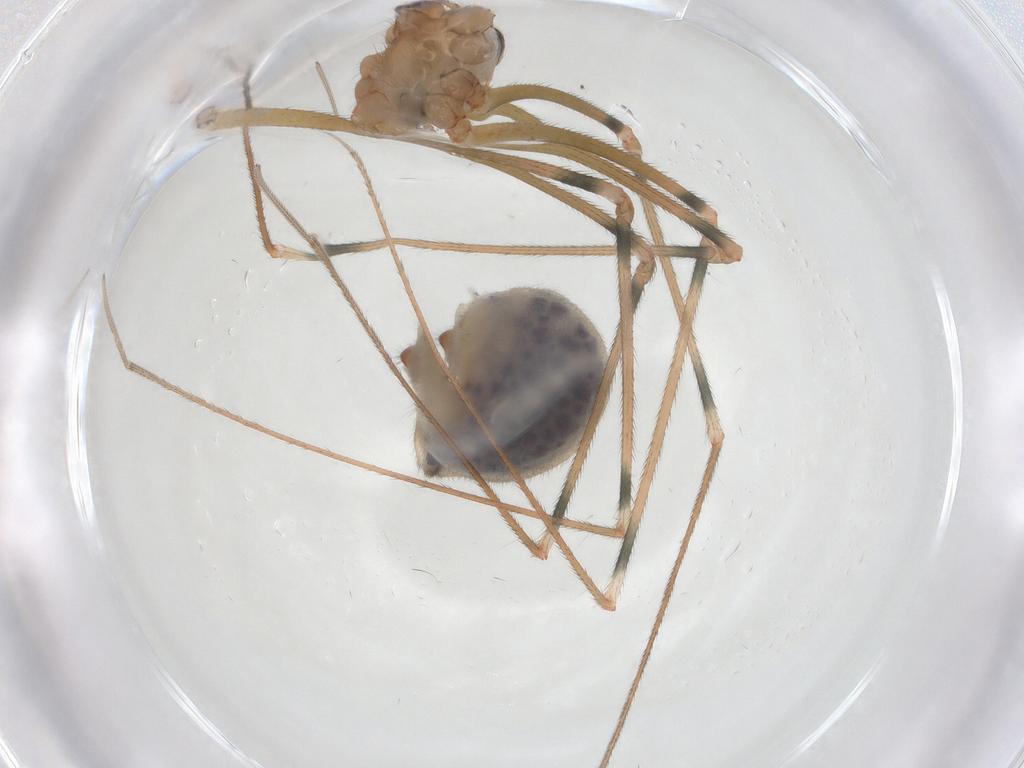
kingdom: Animalia
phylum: Arthropoda
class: Arachnida
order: Araneae
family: Pholcidae
